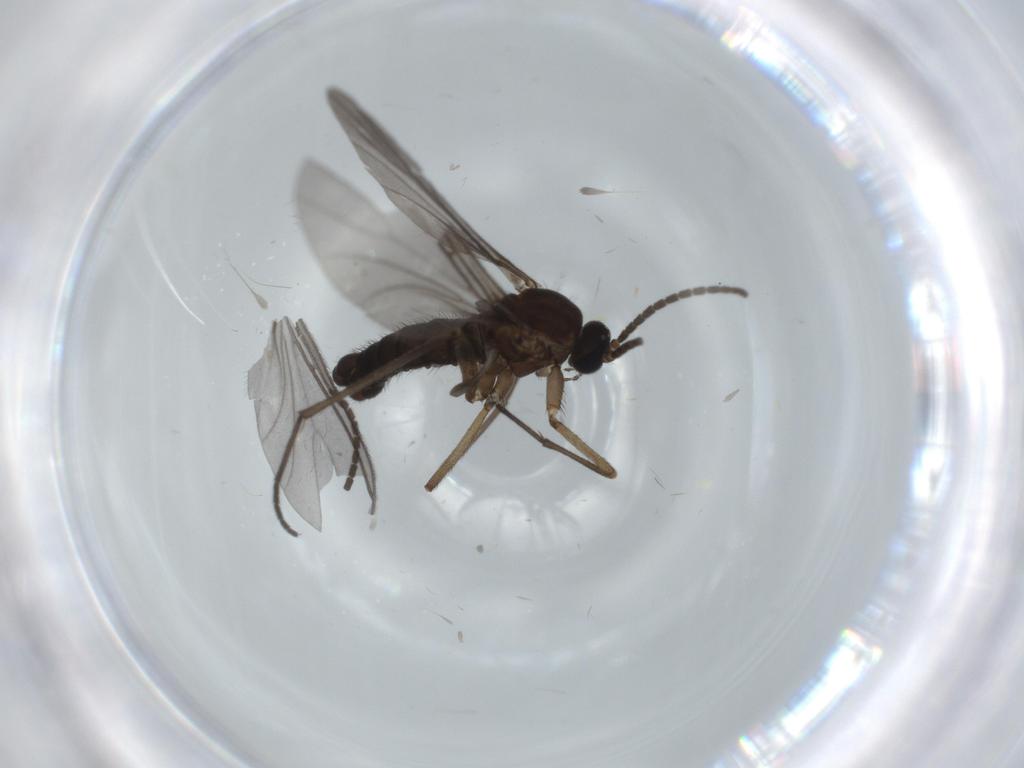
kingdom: Animalia
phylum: Arthropoda
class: Insecta
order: Diptera
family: Sciaridae
